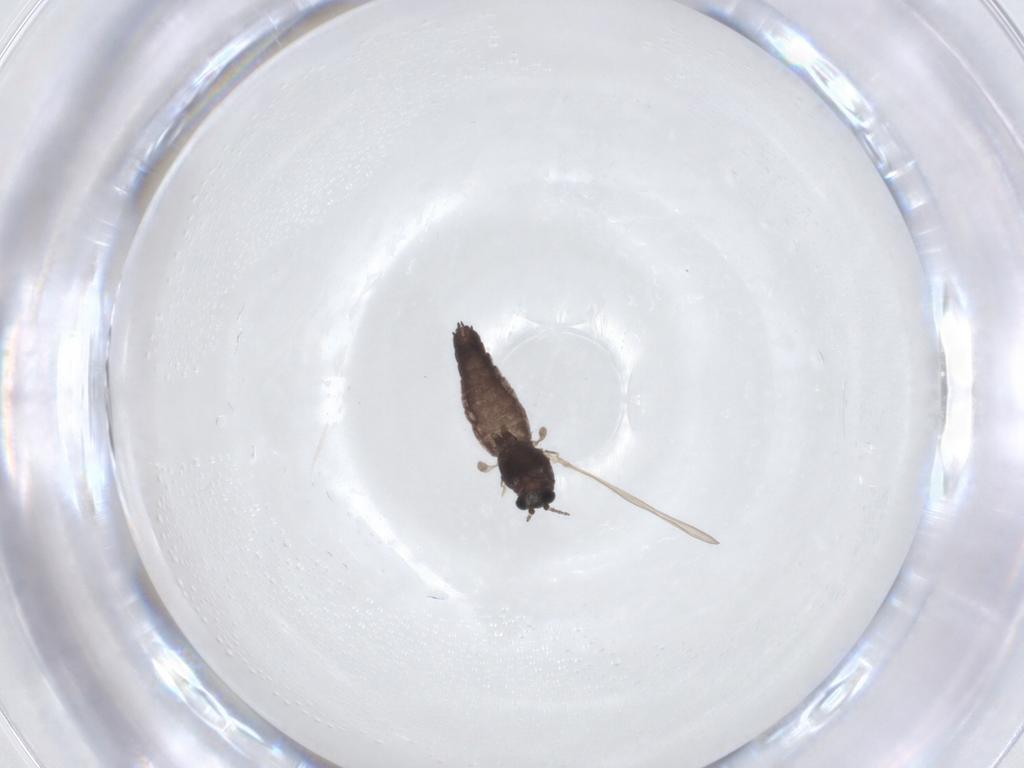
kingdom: Animalia
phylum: Arthropoda
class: Insecta
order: Diptera
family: Chironomidae
